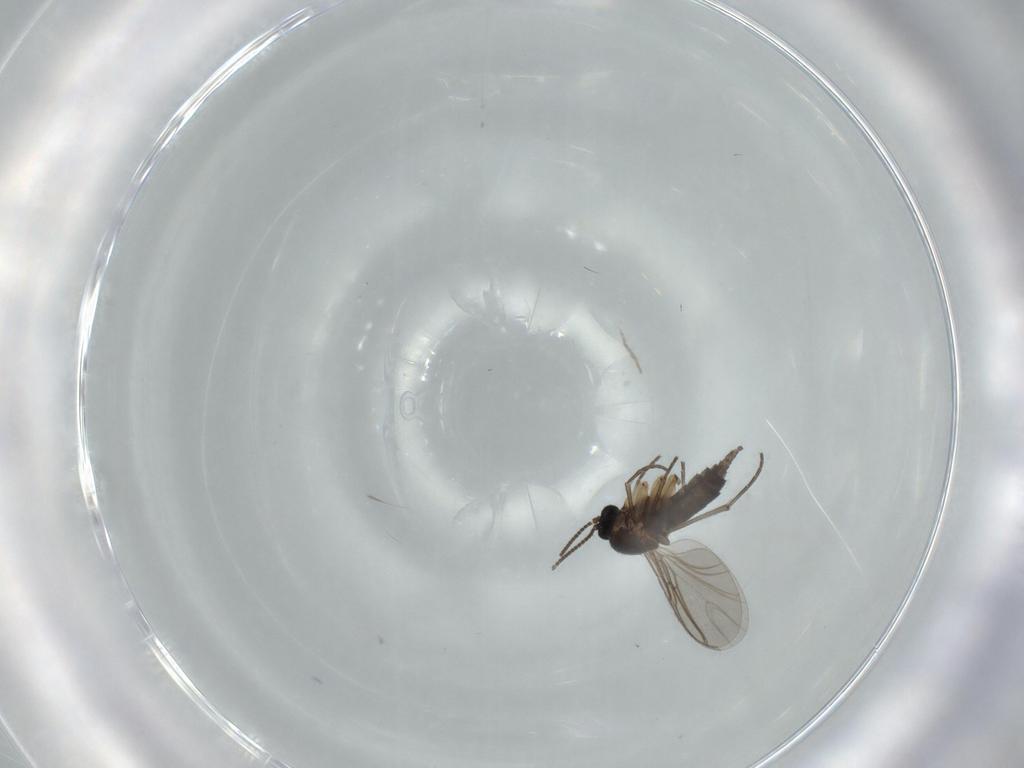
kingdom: Animalia
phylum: Arthropoda
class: Insecta
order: Diptera
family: Sciaridae
